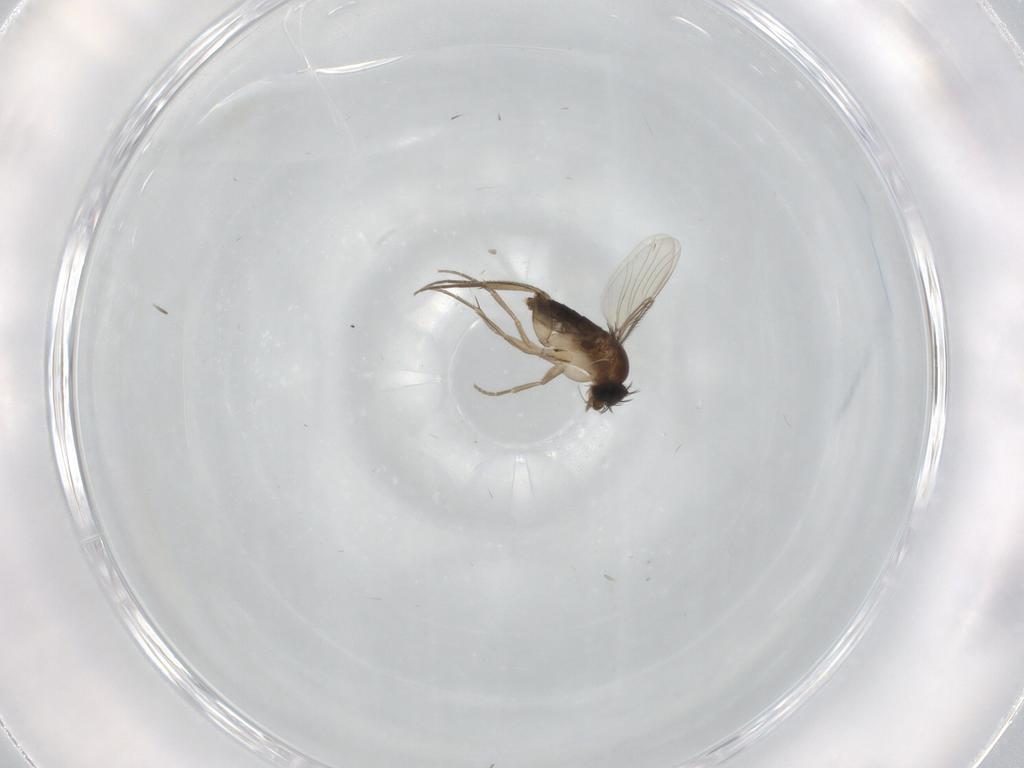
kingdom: Animalia
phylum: Arthropoda
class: Insecta
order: Diptera
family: Phoridae
